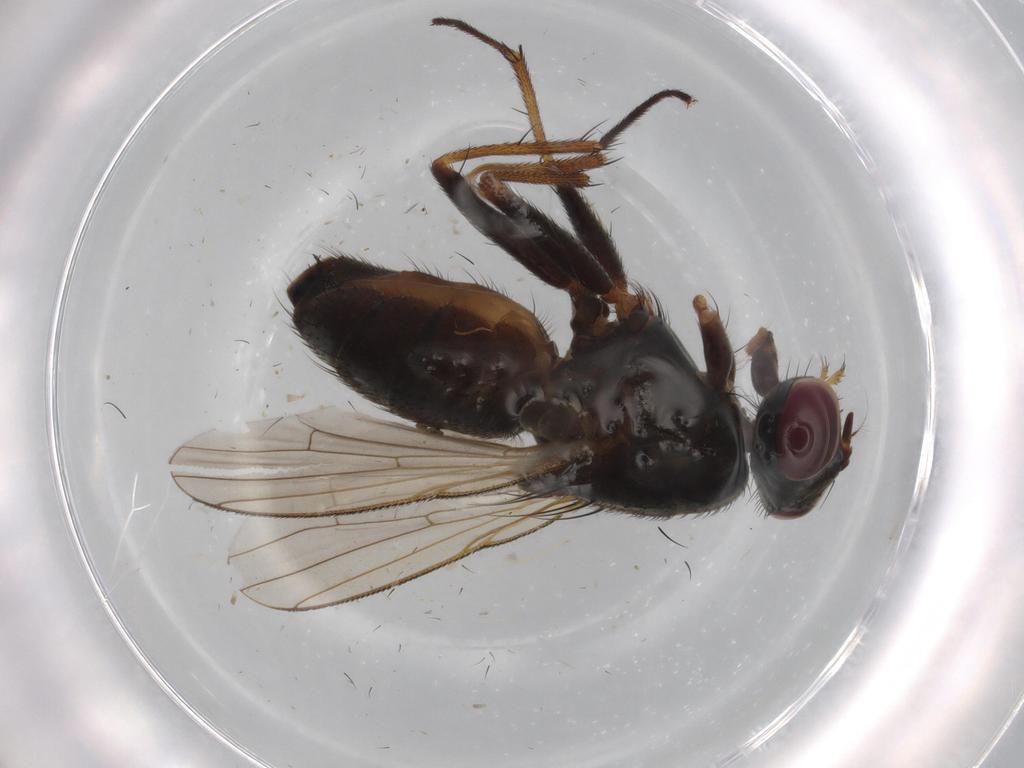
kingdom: Animalia
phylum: Arthropoda
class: Insecta
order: Diptera
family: Muscidae
